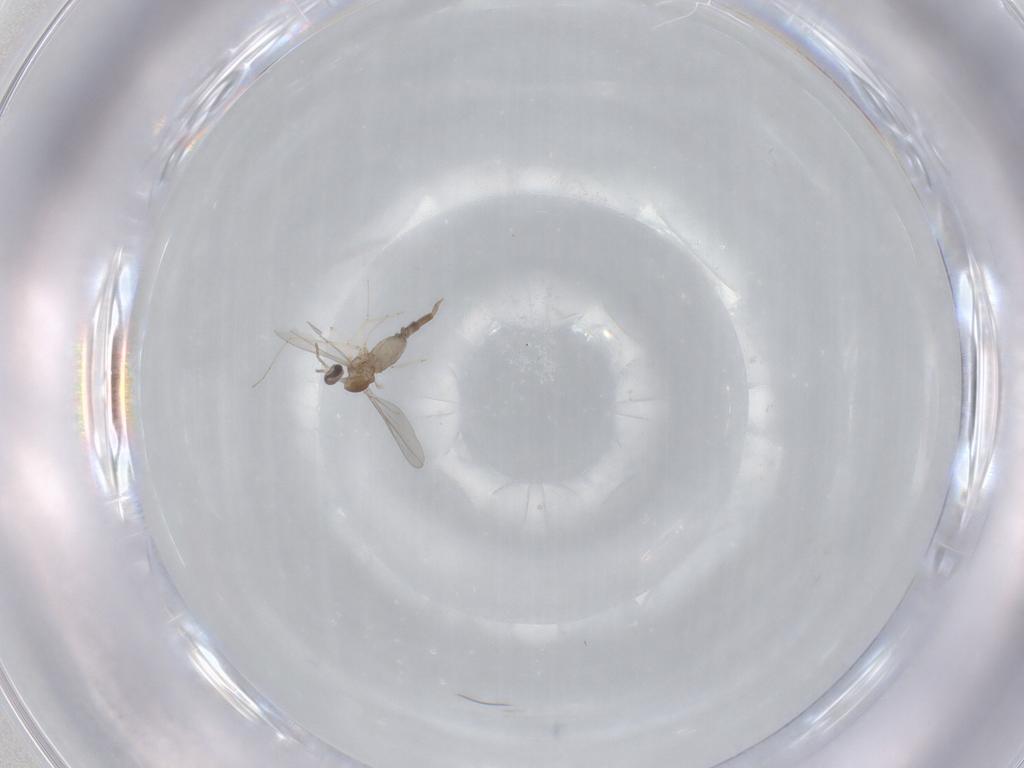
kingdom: Animalia
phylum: Arthropoda
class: Insecta
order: Diptera
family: Cecidomyiidae
